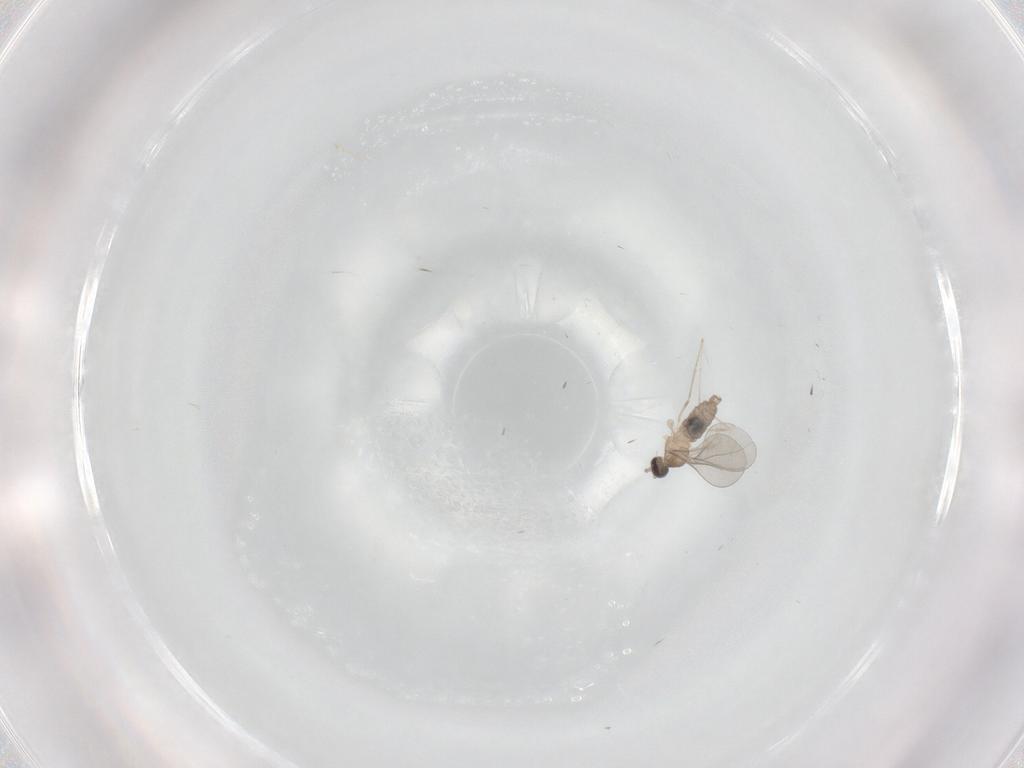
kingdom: Animalia
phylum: Arthropoda
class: Insecta
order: Diptera
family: Cecidomyiidae
